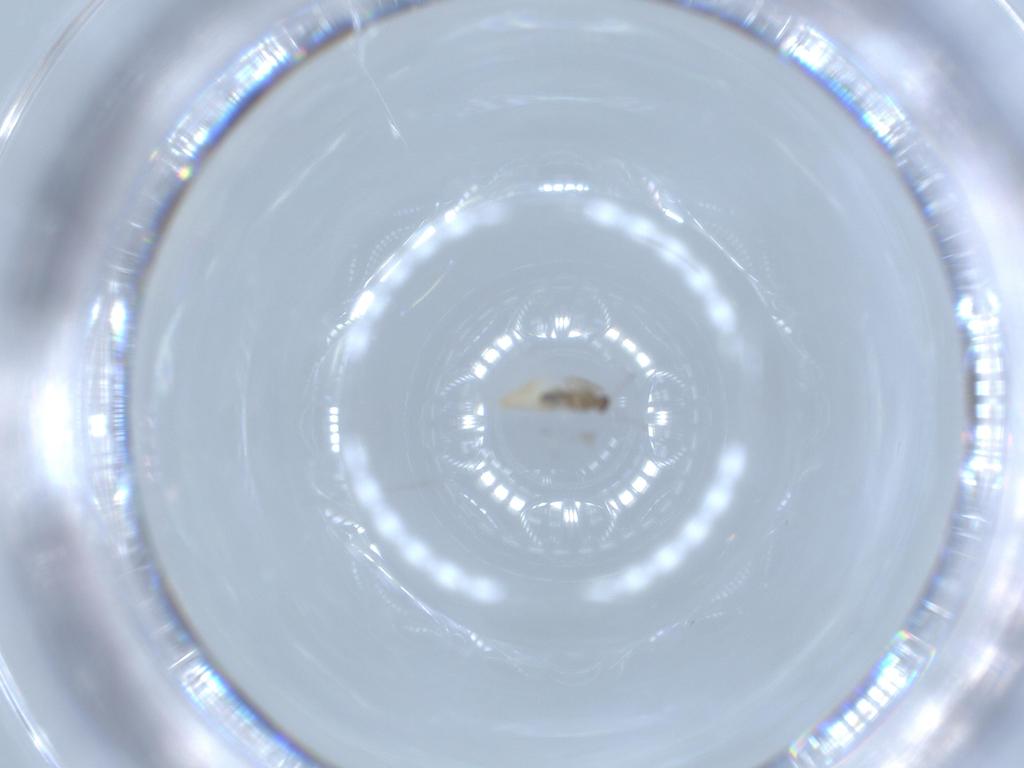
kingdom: Animalia
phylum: Arthropoda
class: Insecta
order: Diptera
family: Cecidomyiidae
